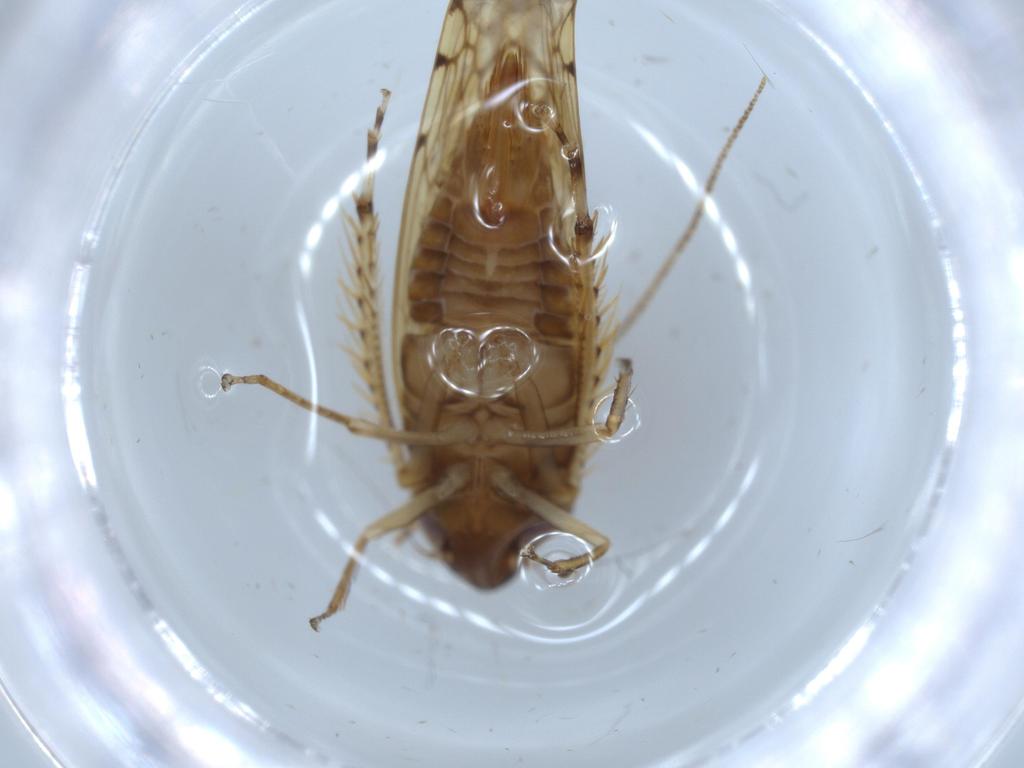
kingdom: Animalia
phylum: Arthropoda
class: Insecta
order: Hemiptera
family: Cicadellidae
